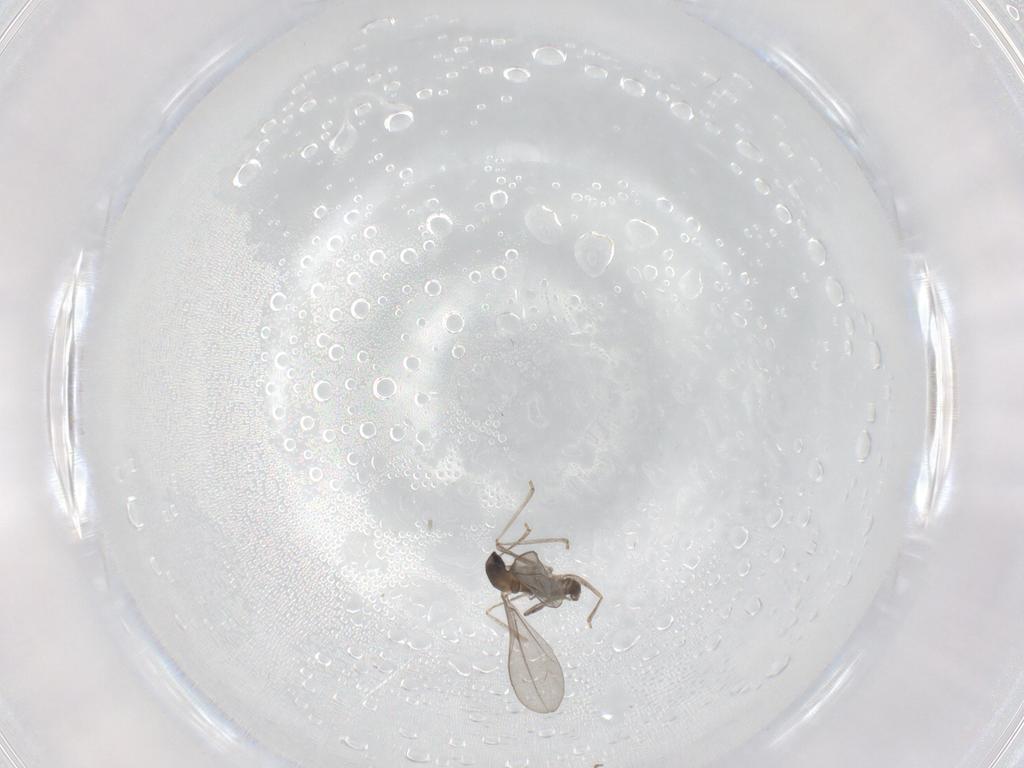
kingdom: Animalia
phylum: Arthropoda
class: Insecta
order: Diptera
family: Cecidomyiidae
